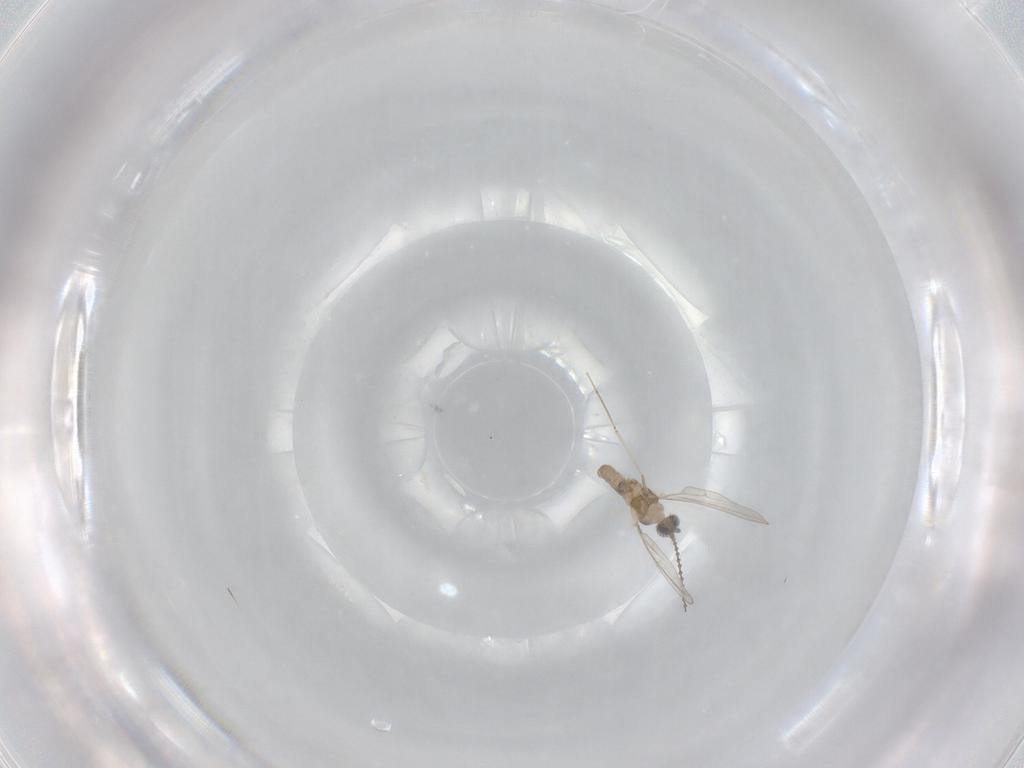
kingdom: Animalia
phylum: Arthropoda
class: Insecta
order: Diptera
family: Cecidomyiidae
